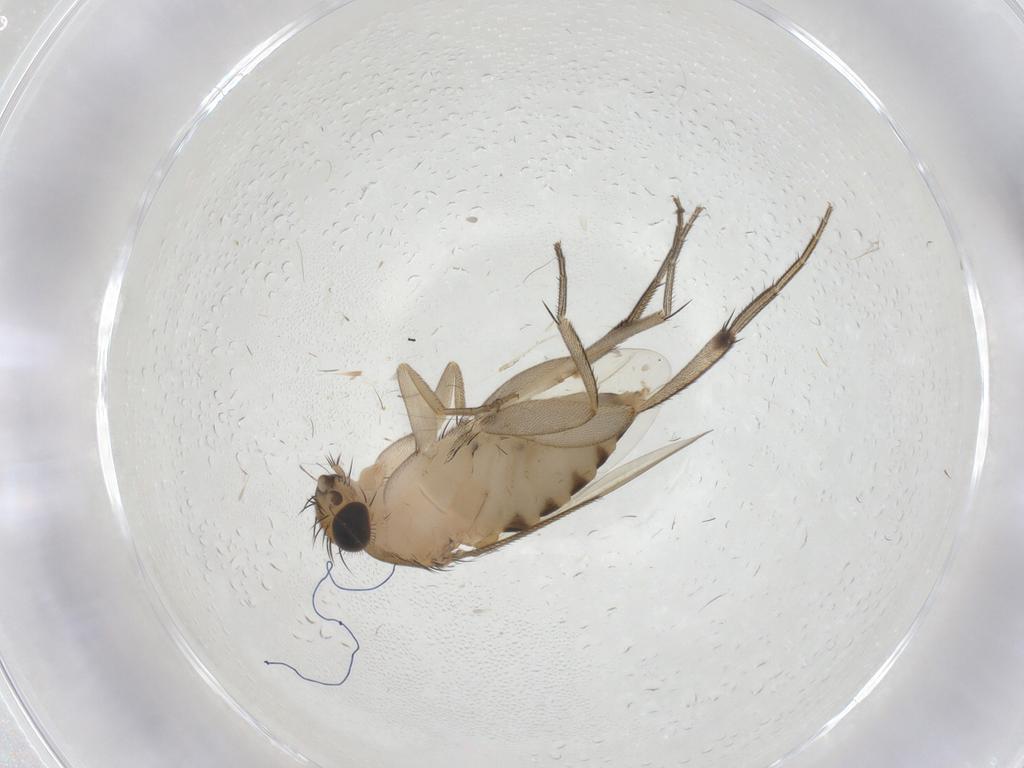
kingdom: Animalia
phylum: Arthropoda
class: Insecta
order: Diptera
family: Phoridae
